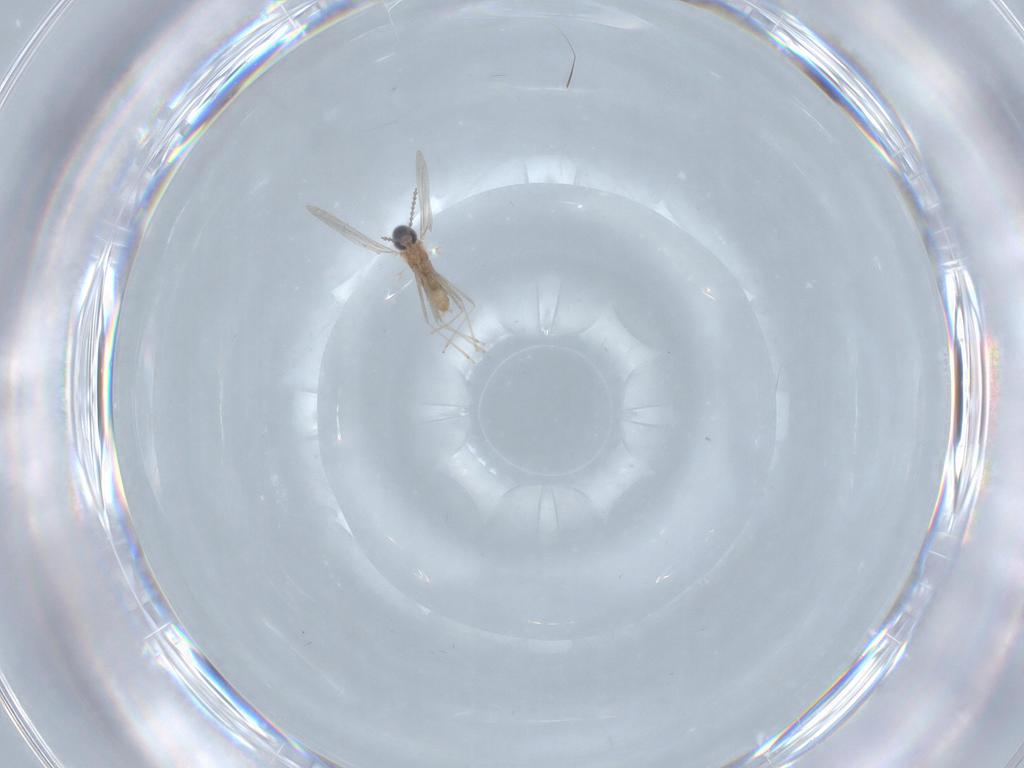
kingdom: Animalia
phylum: Arthropoda
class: Insecta
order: Diptera
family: Cecidomyiidae
